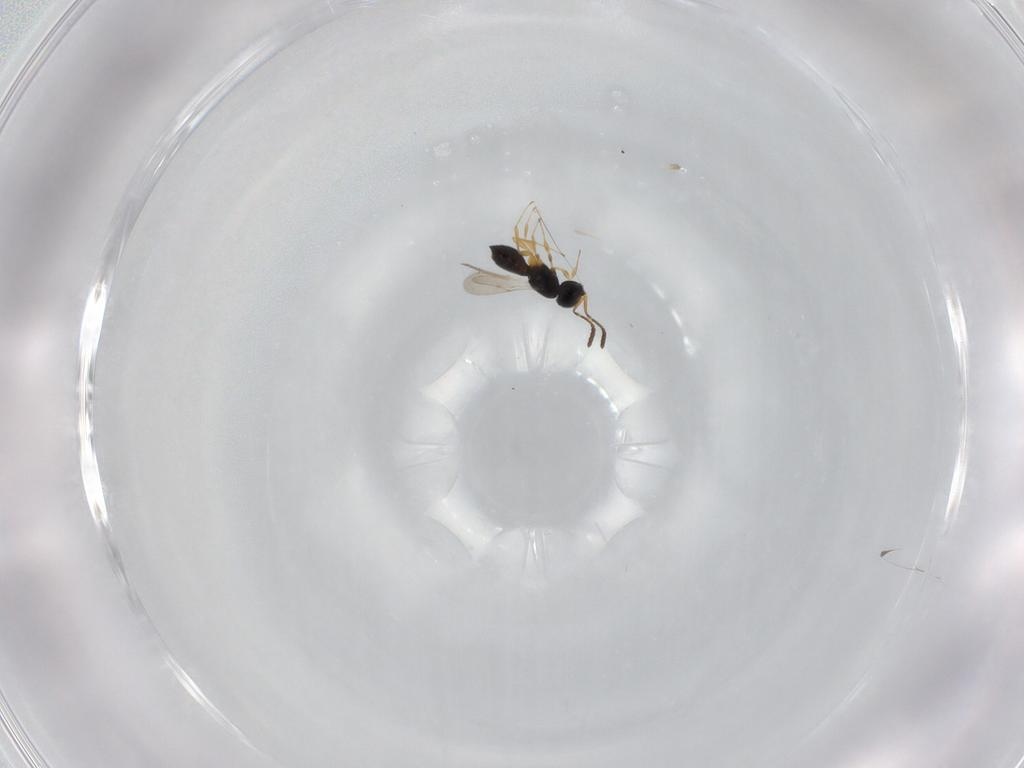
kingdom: Animalia
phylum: Arthropoda
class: Insecta
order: Hymenoptera
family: Scelionidae
